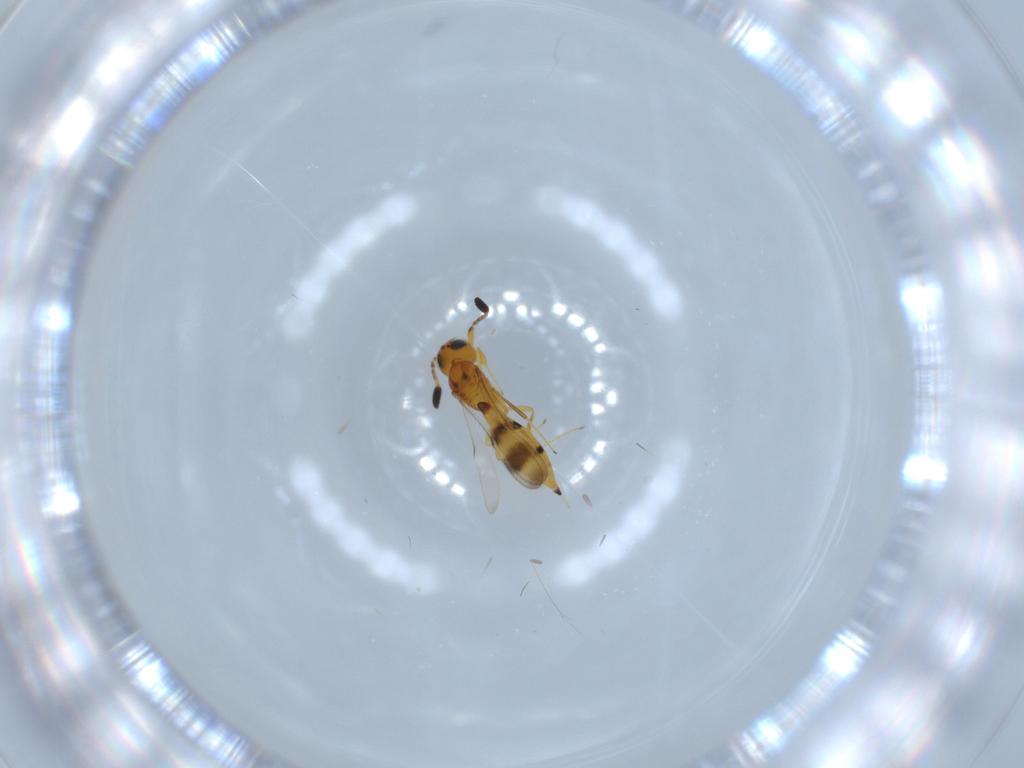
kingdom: Animalia
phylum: Arthropoda
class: Insecta
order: Hymenoptera
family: Scelionidae
